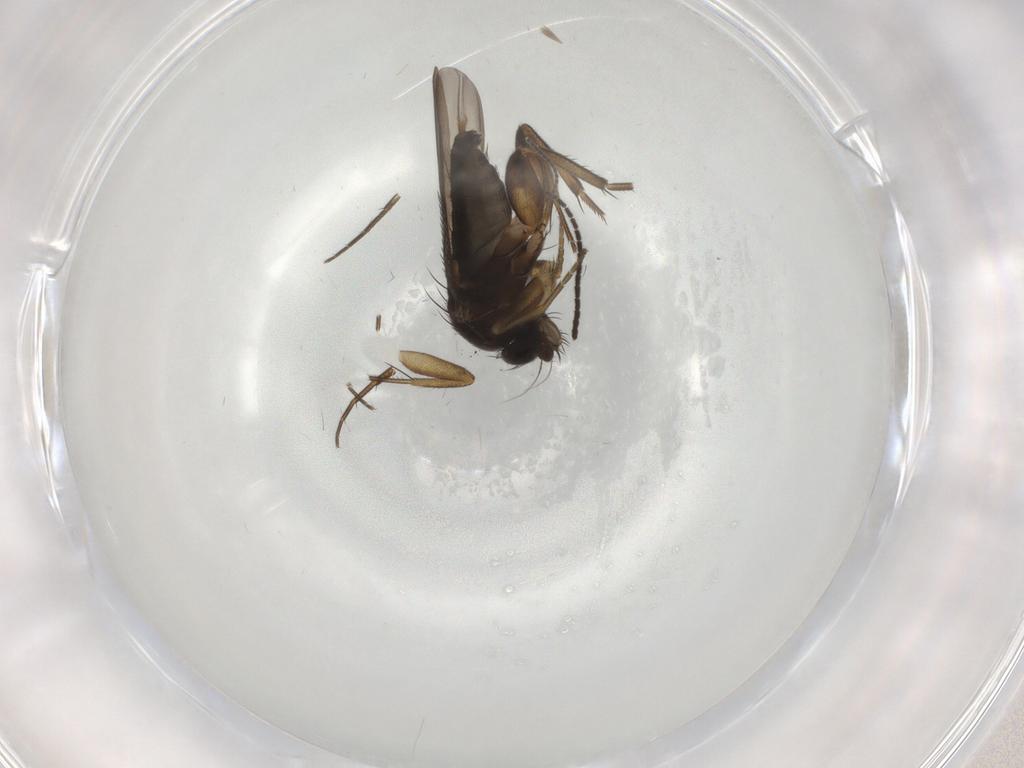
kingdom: Animalia
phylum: Arthropoda
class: Insecta
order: Diptera
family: Phoridae
